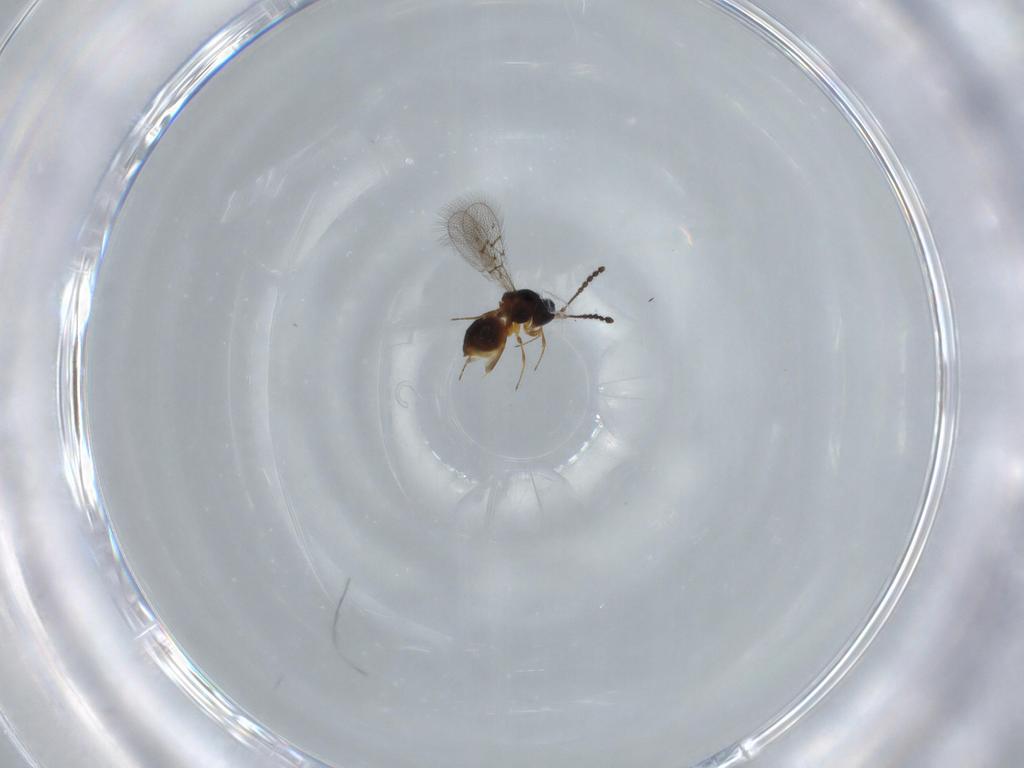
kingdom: Animalia
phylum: Arthropoda
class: Insecta
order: Hymenoptera
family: Figitidae
